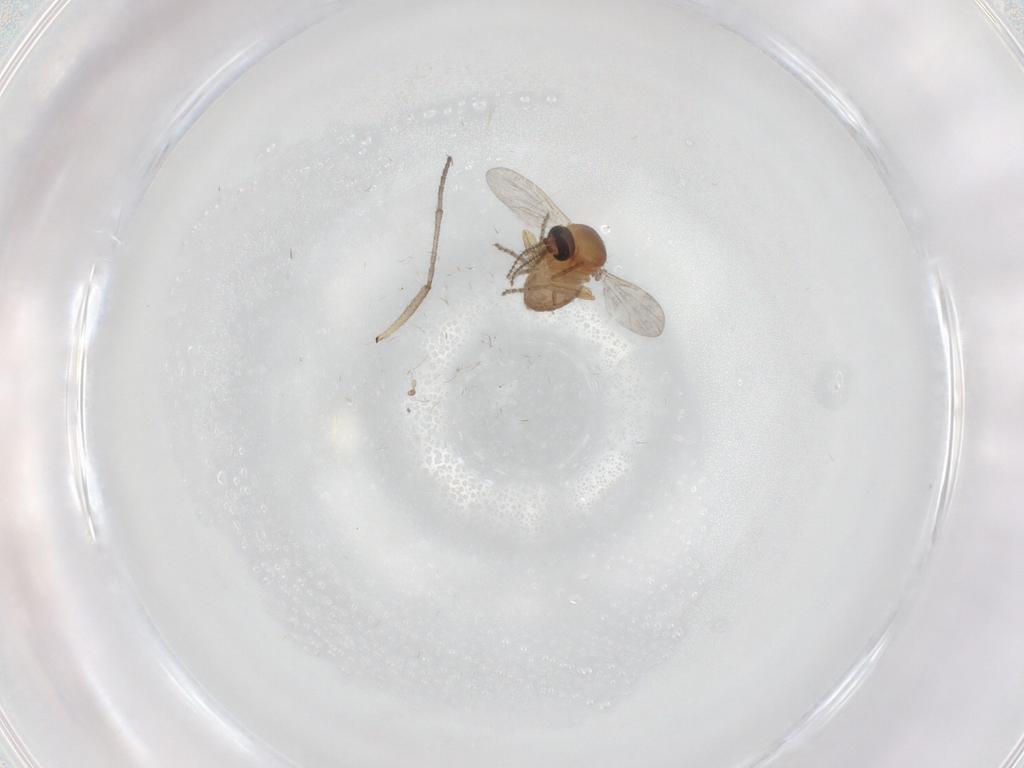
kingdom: Animalia
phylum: Arthropoda
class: Insecta
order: Diptera
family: Ceratopogonidae
